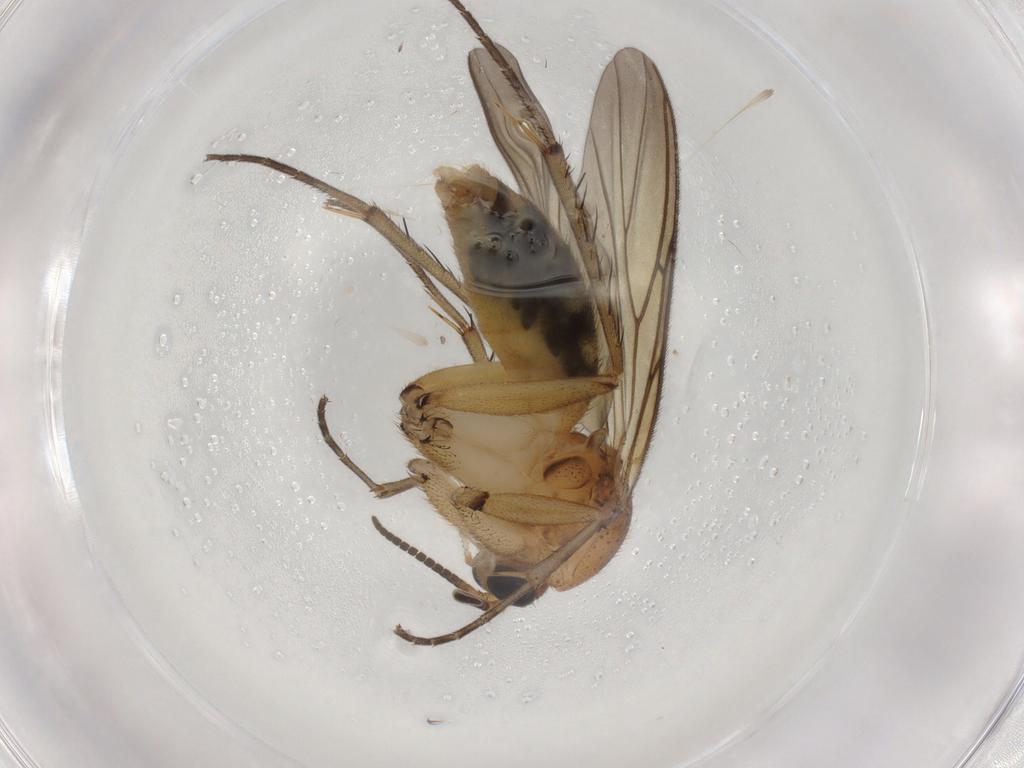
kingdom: Animalia
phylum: Arthropoda
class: Insecta
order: Diptera
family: Mycetophilidae
